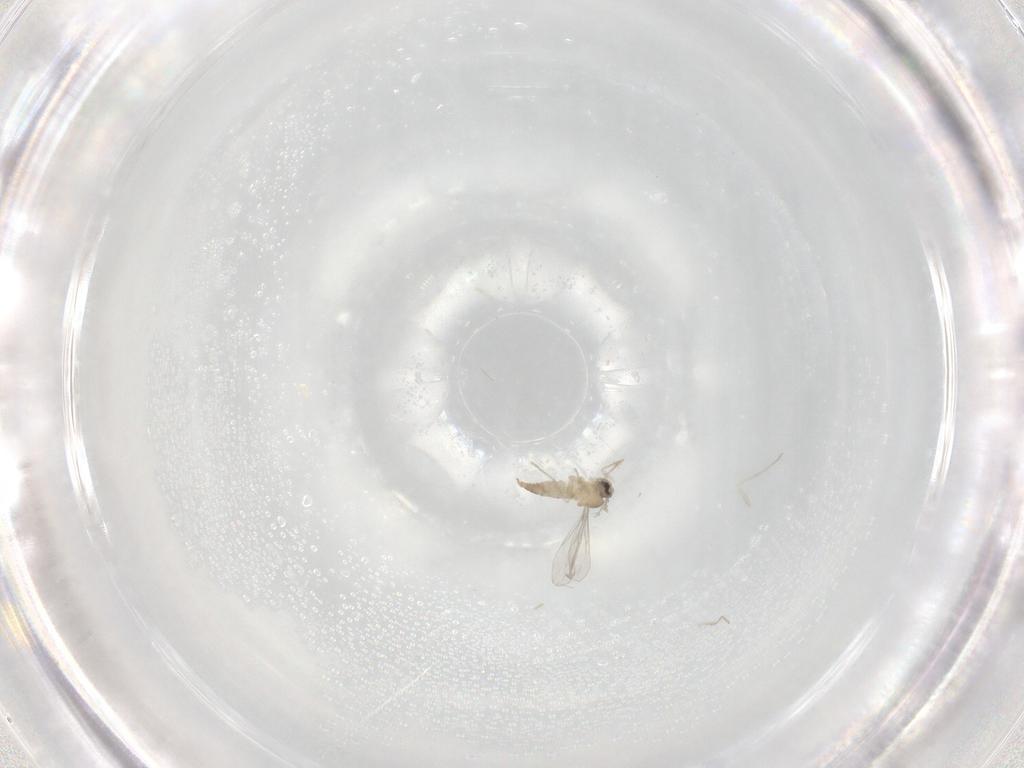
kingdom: Animalia
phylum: Arthropoda
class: Insecta
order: Diptera
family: Cecidomyiidae
